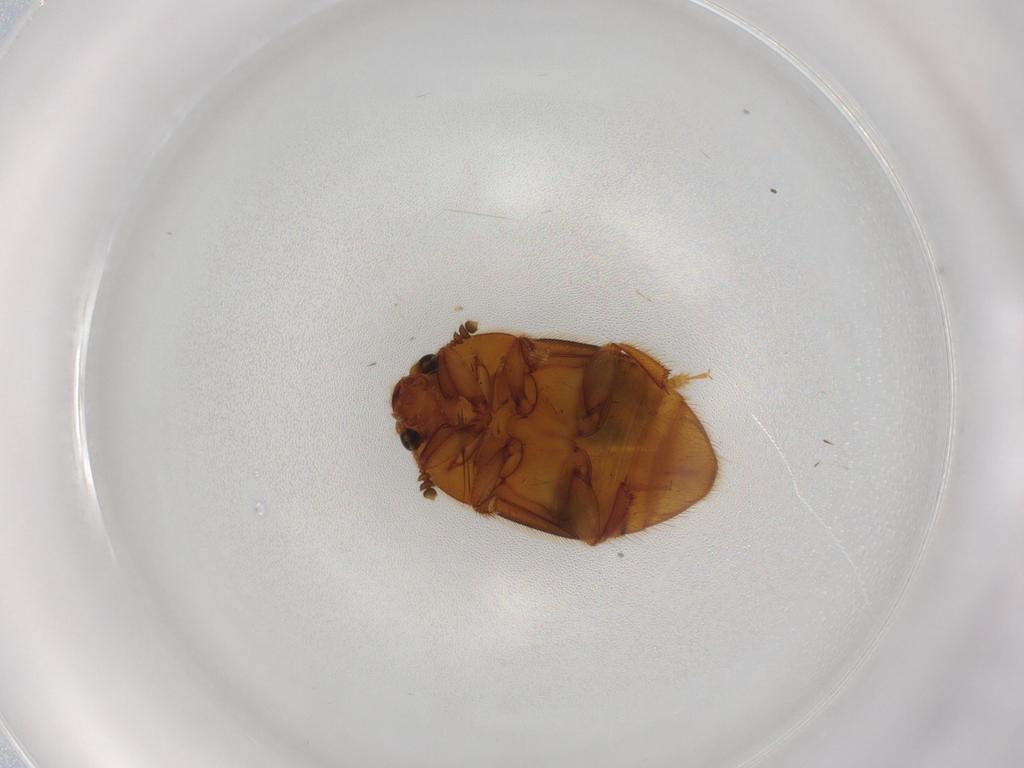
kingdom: Animalia
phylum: Arthropoda
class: Insecta
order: Coleoptera
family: Nitidulidae
